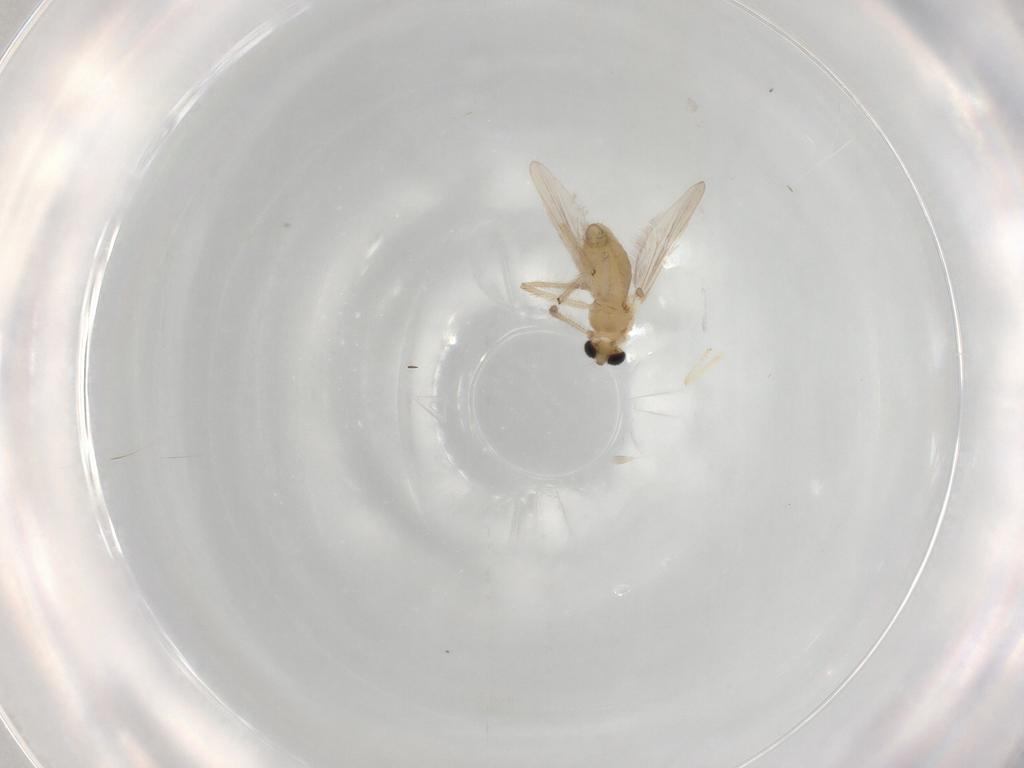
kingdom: Animalia
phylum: Arthropoda
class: Insecta
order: Diptera
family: Chironomidae
